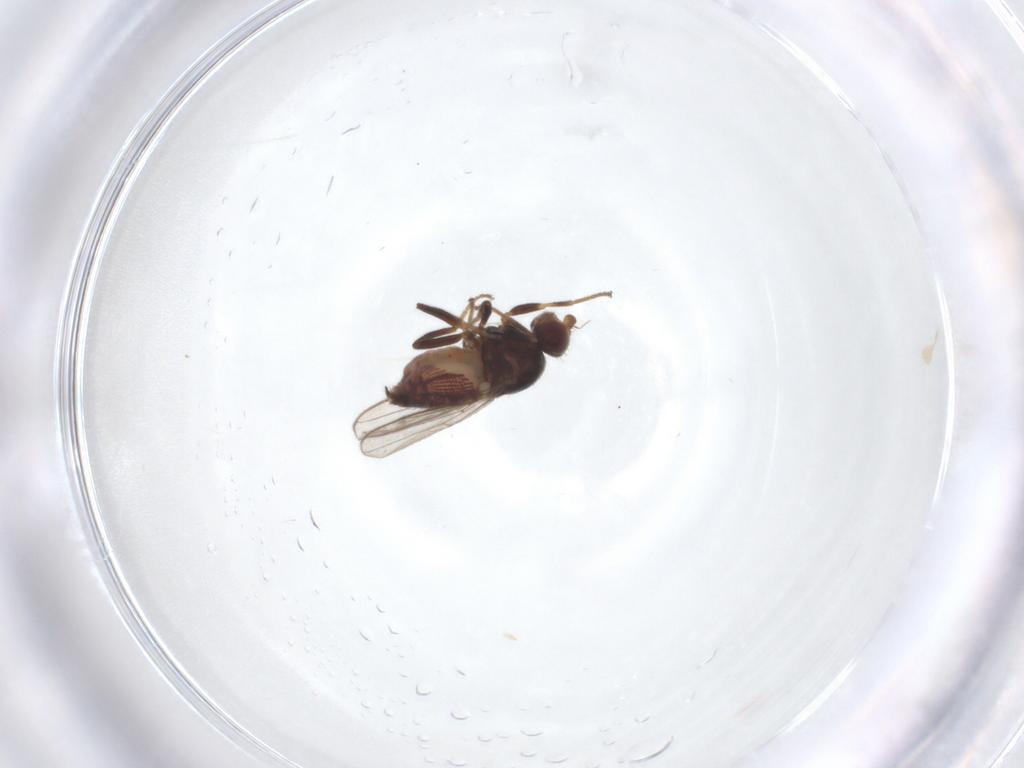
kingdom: Animalia
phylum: Arthropoda
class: Insecta
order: Diptera
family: Chloropidae
